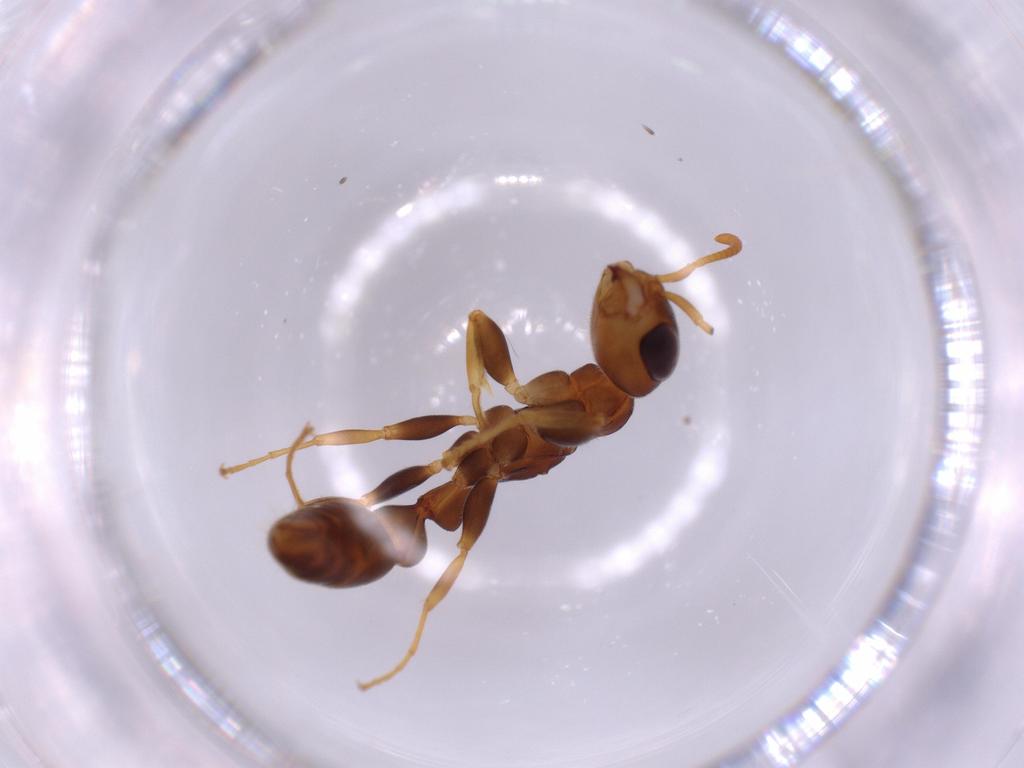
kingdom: Animalia
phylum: Arthropoda
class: Insecta
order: Hymenoptera
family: Formicidae
